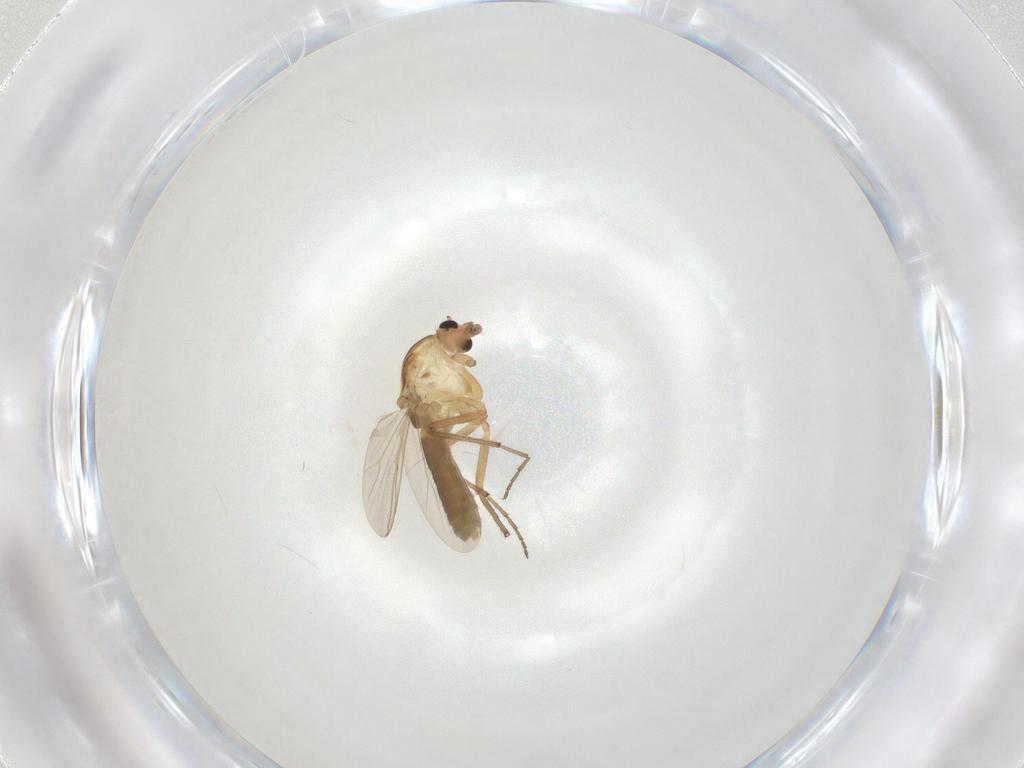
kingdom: Animalia
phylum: Arthropoda
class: Insecta
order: Diptera
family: Chironomidae
